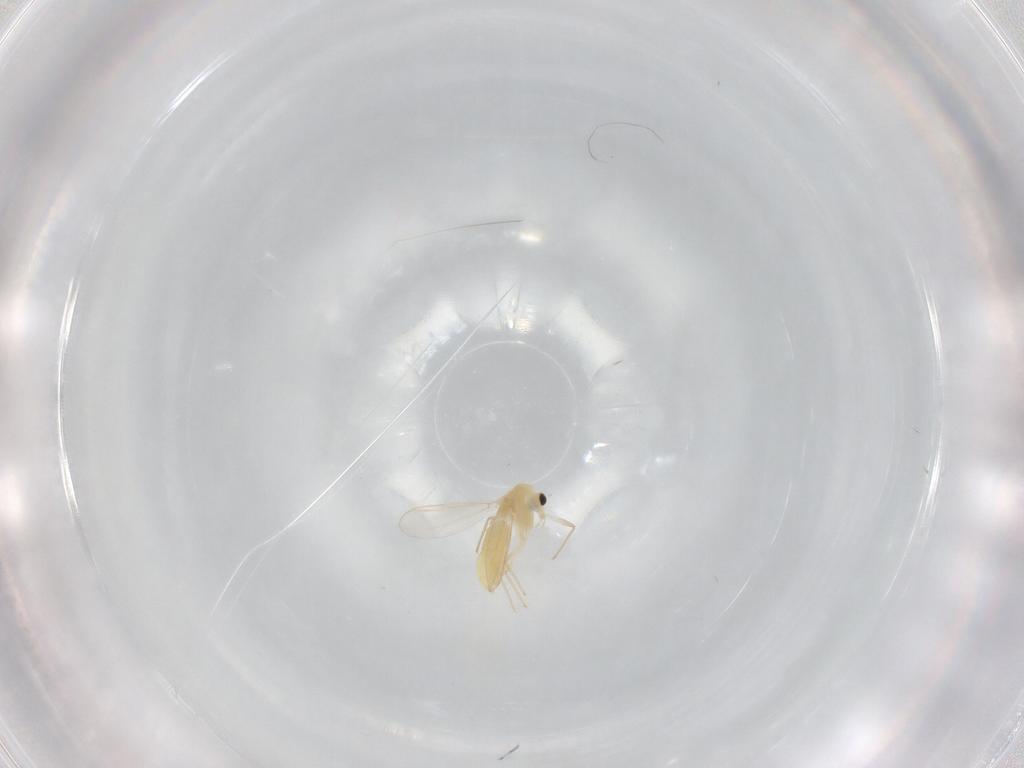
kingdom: Animalia
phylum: Arthropoda
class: Insecta
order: Diptera
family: Chironomidae
